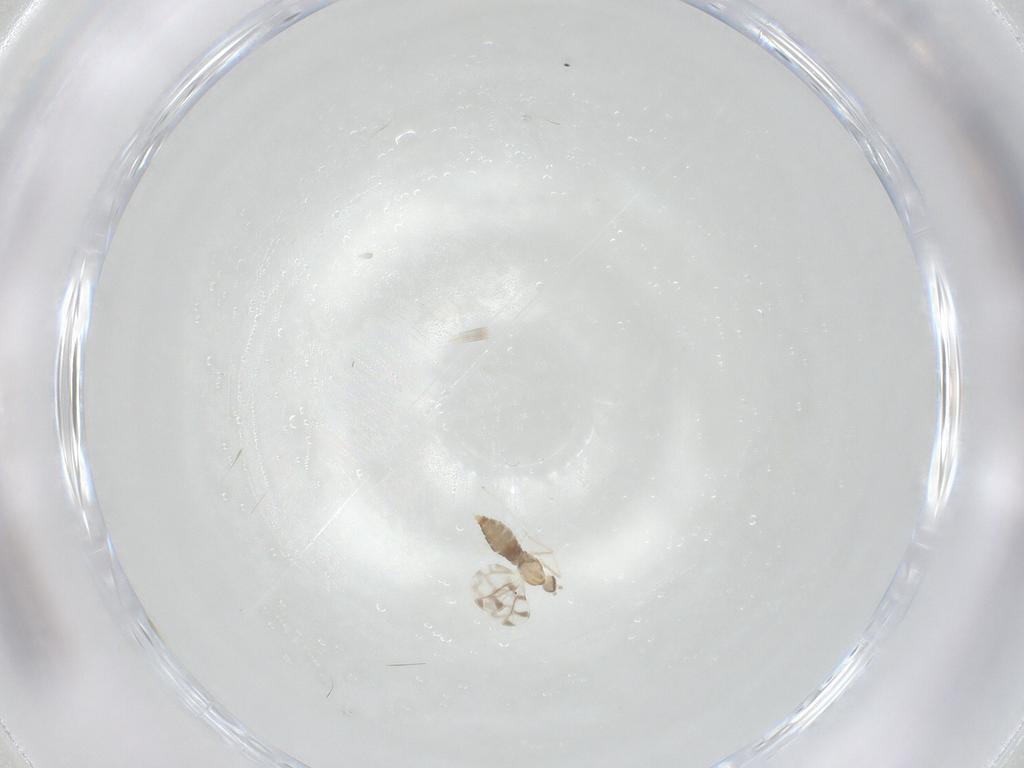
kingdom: Animalia
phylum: Arthropoda
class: Insecta
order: Diptera
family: Cecidomyiidae
